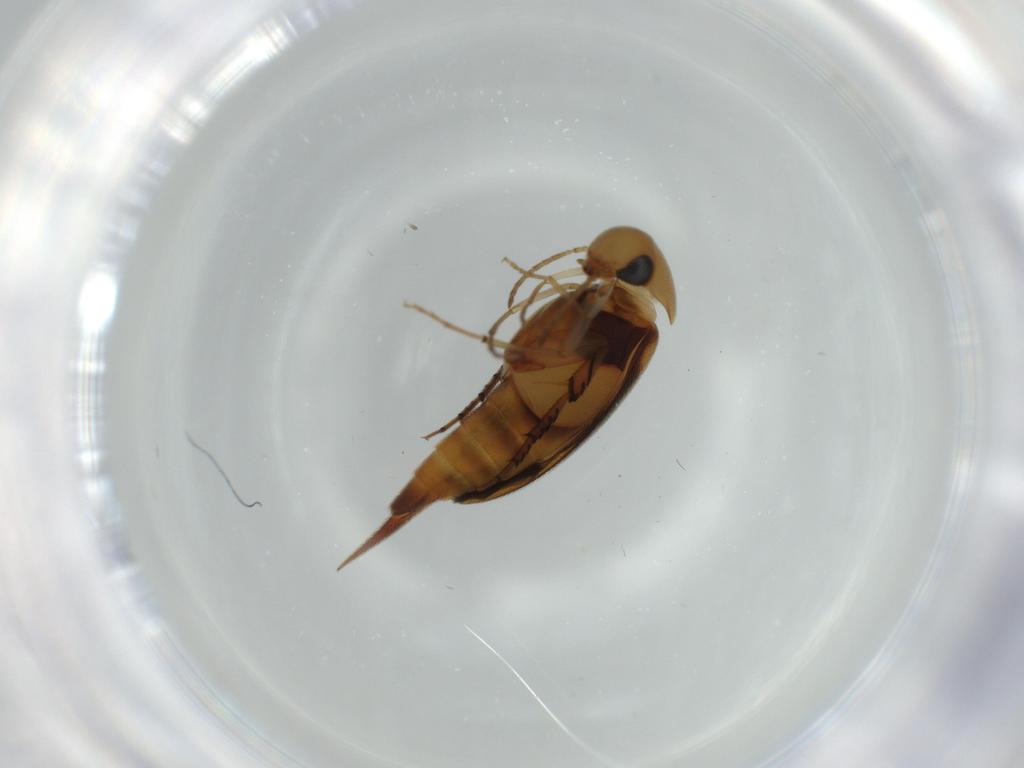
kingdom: Animalia
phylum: Arthropoda
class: Insecta
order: Coleoptera
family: Mordellidae
